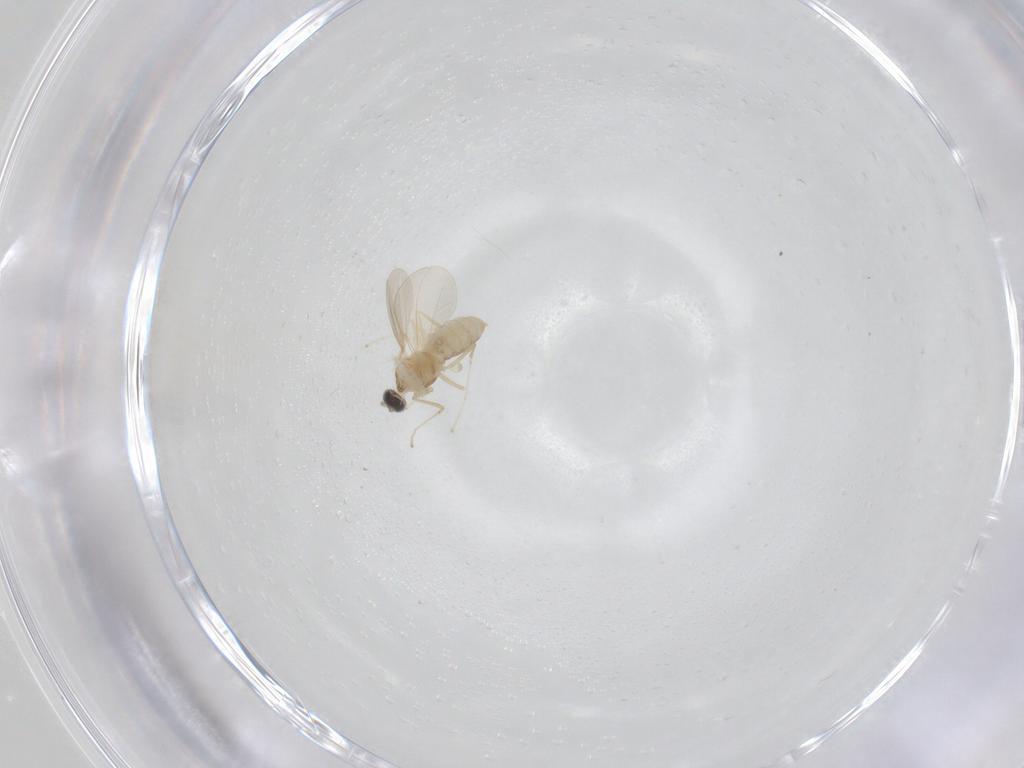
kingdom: Animalia
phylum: Arthropoda
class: Insecta
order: Diptera
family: Cecidomyiidae
